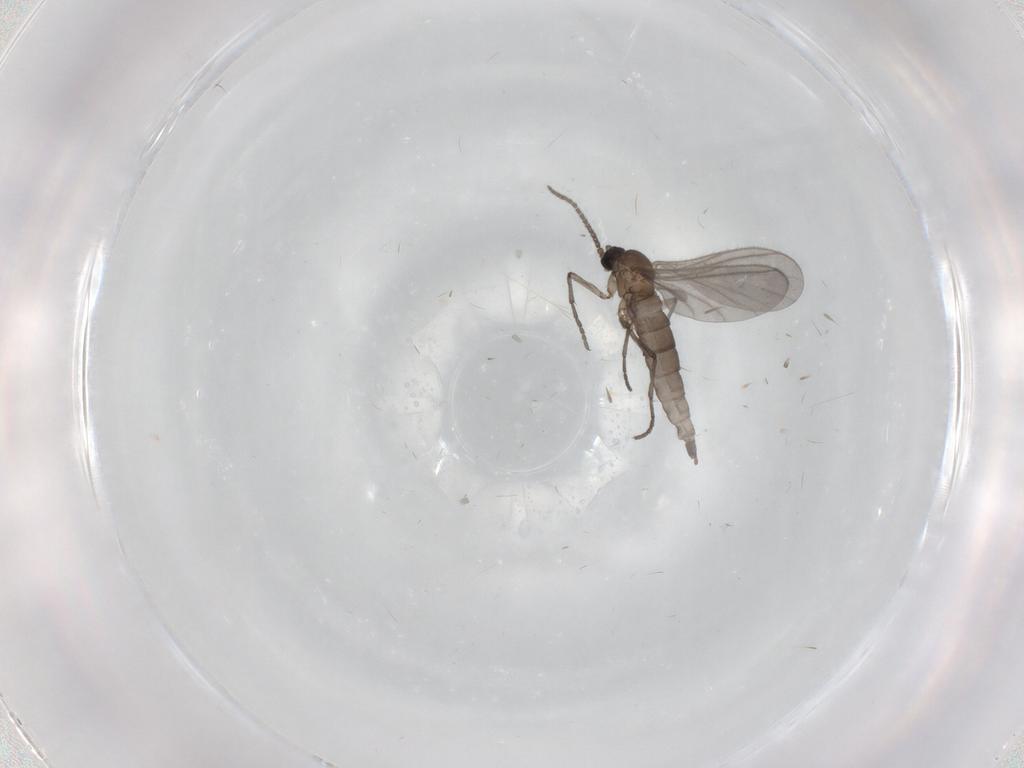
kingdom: Animalia
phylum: Arthropoda
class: Insecta
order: Diptera
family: Sciaridae
